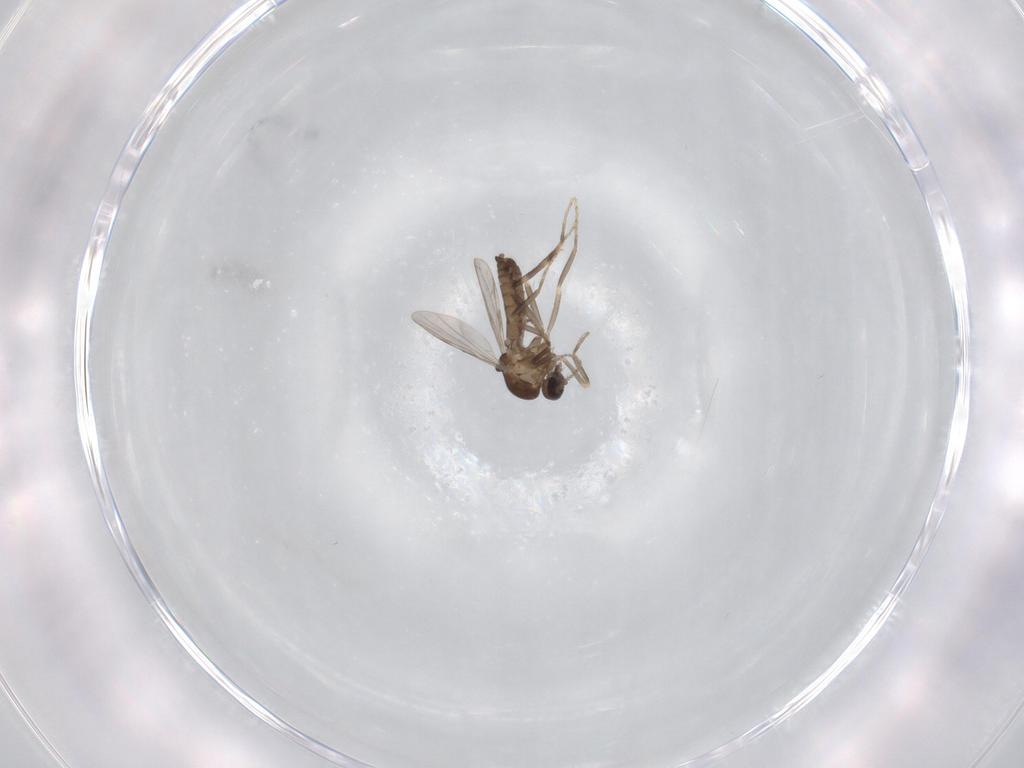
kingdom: Animalia
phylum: Arthropoda
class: Insecta
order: Diptera
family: Ceratopogonidae
